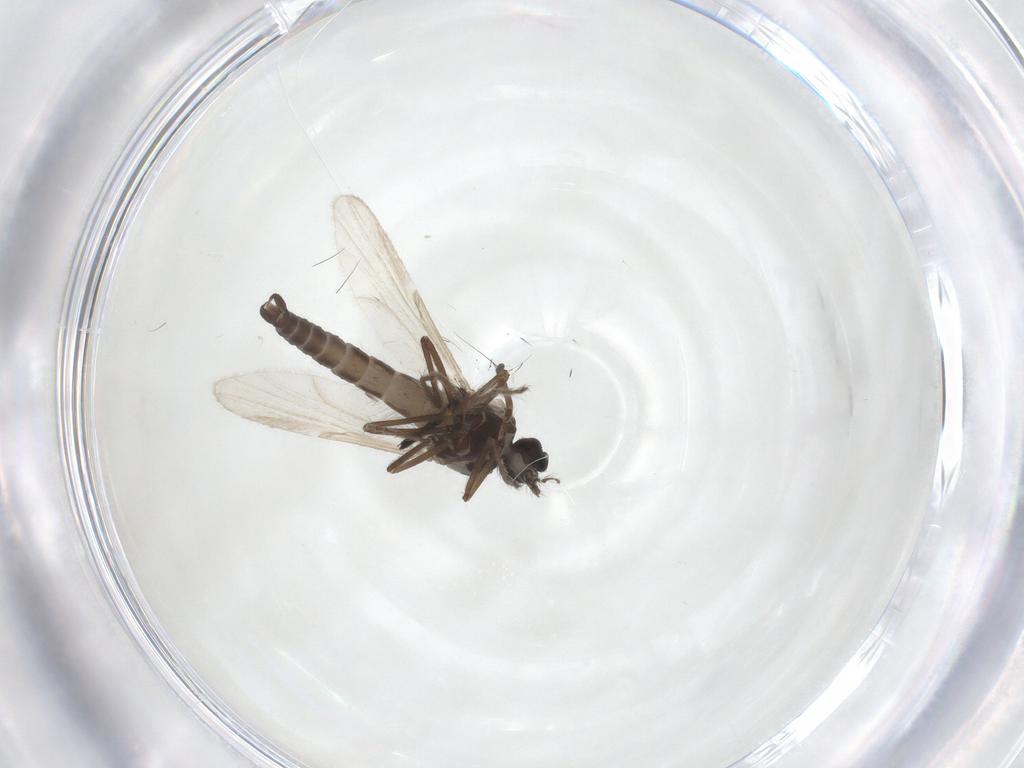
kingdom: Animalia
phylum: Arthropoda
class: Insecta
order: Diptera
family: Ceratopogonidae
